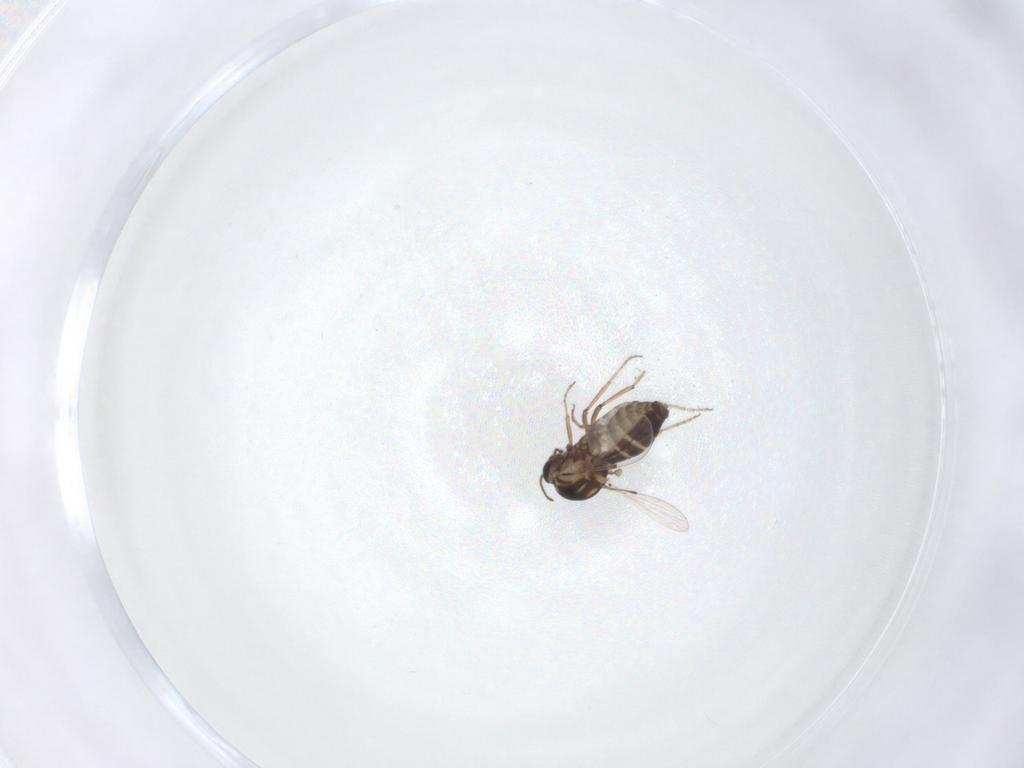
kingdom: Animalia
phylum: Arthropoda
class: Insecta
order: Diptera
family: Ceratopogonidae
